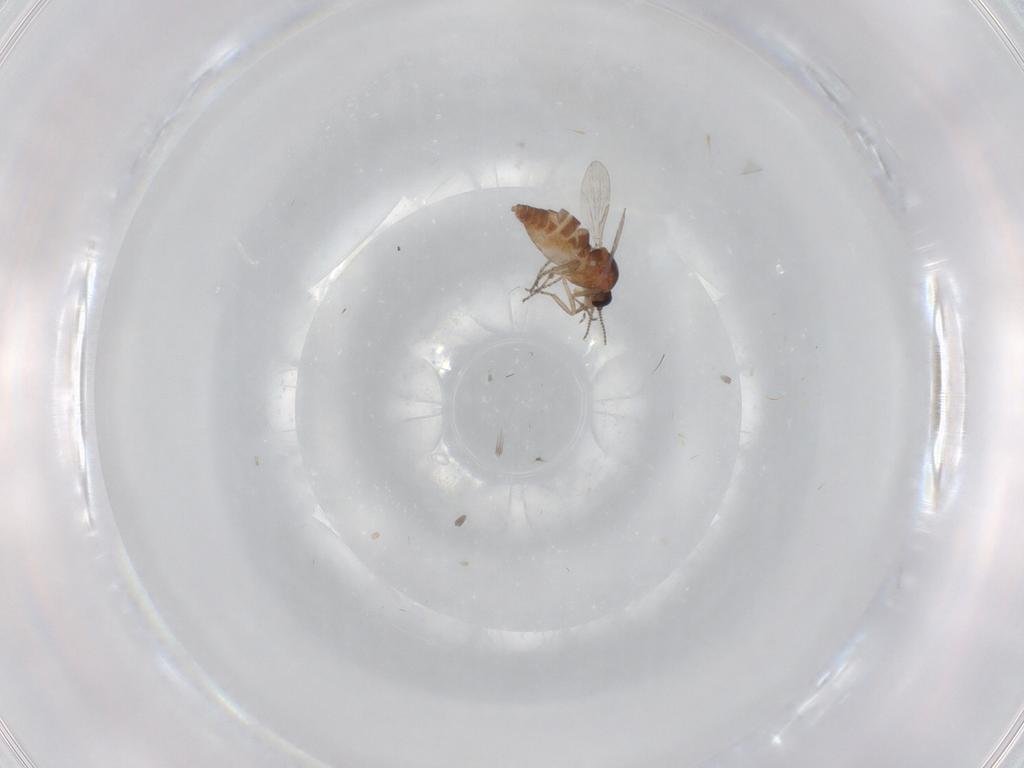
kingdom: Animalia
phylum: Arthropoda
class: Insecta
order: Diptera
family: Ceratopogonidae
